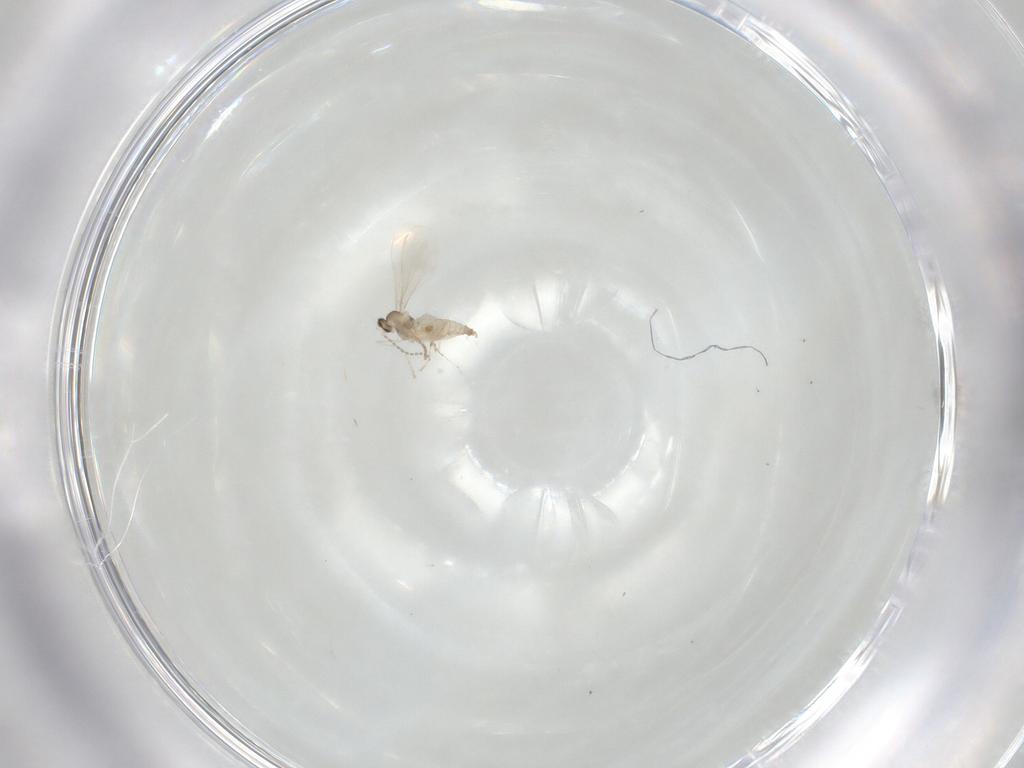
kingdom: Animalia
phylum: Arthropoda
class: Insecta
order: Diptera
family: Cecidomyiidae
